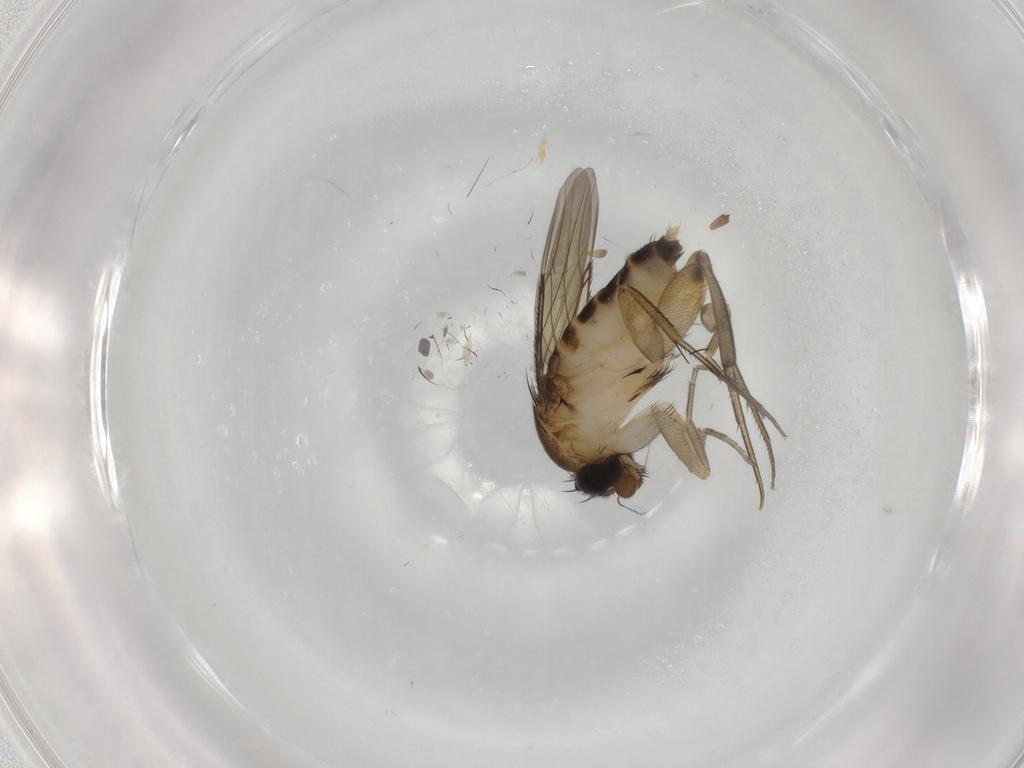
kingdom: Animalia
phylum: Arthropoda
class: Insecta
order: Diptera
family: Phoridae
